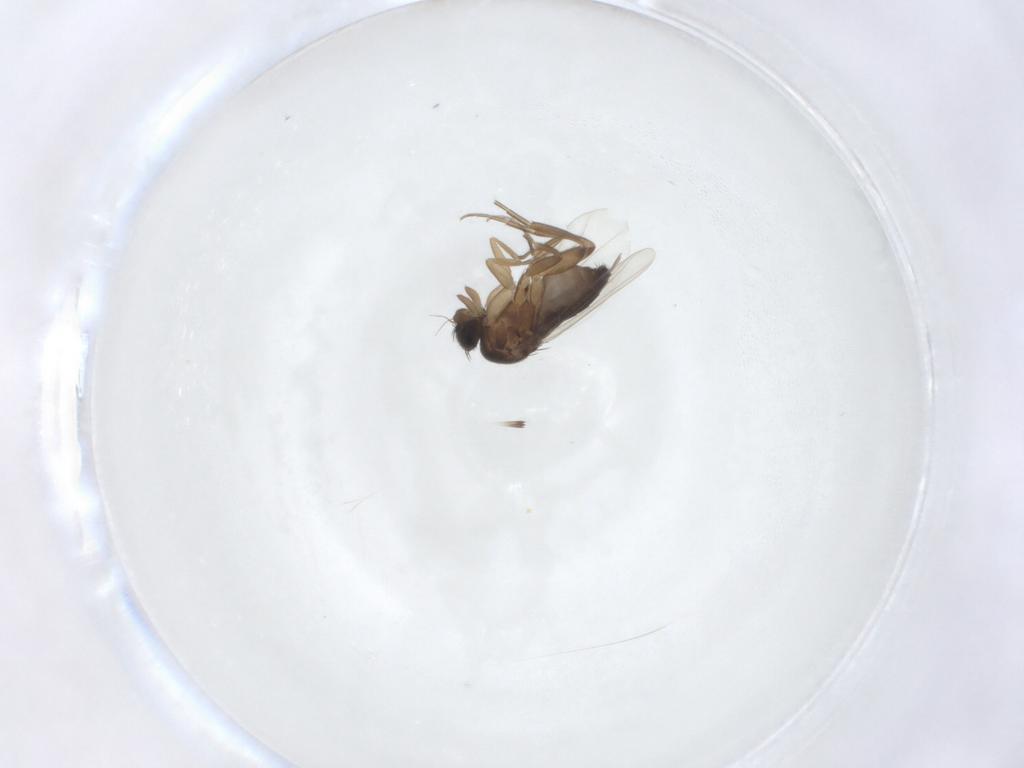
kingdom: Animalia
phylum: Arthropoda
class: Insecta
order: Diptera
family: Phoridae
